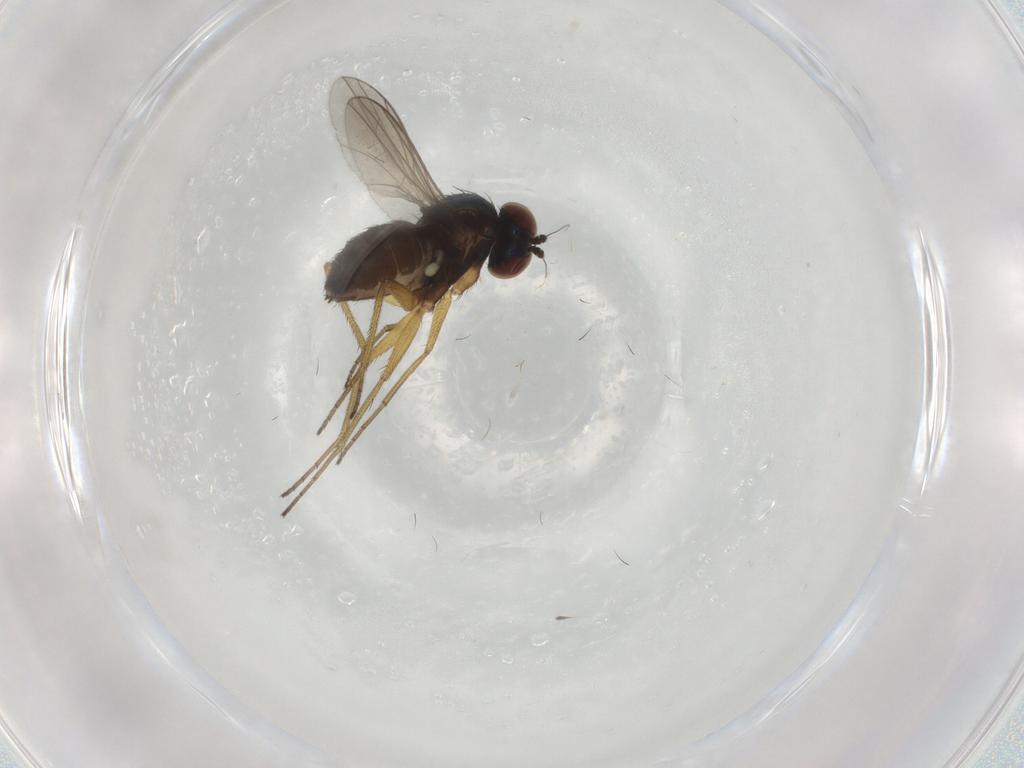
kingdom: Animalia
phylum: Arthropoda
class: Insecta
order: Diptera
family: Dolichopodidae
